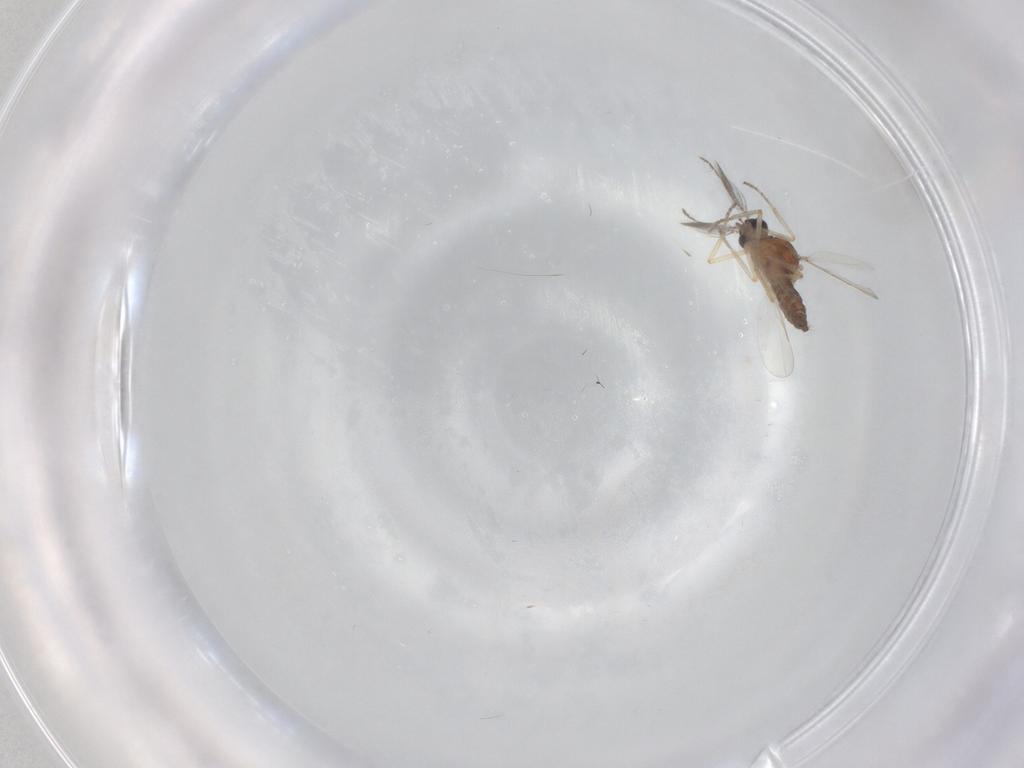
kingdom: Animalia
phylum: Arthropoda
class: Insecta
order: Diptera
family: Ceratopogonidae
